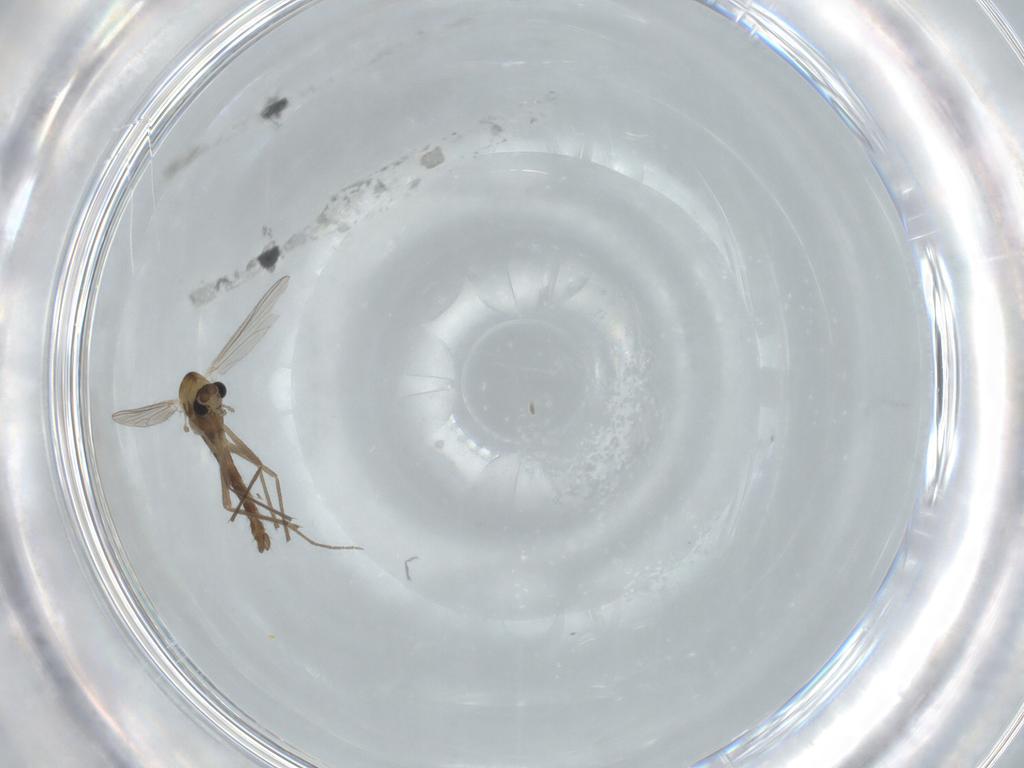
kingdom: Animalia
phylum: Arthropoda
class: Insecta
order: Diptera
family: Chironomidae
